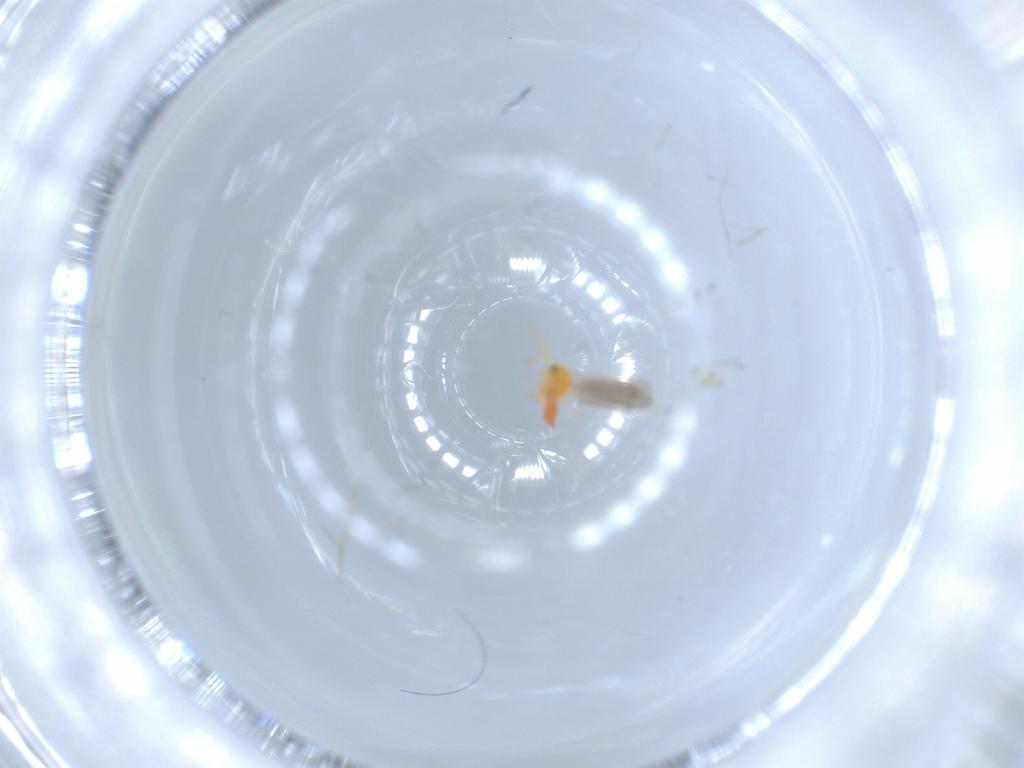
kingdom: Animalia
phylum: Arthropoda
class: Insecta
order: Hemiptera
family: Aleyrodidae
